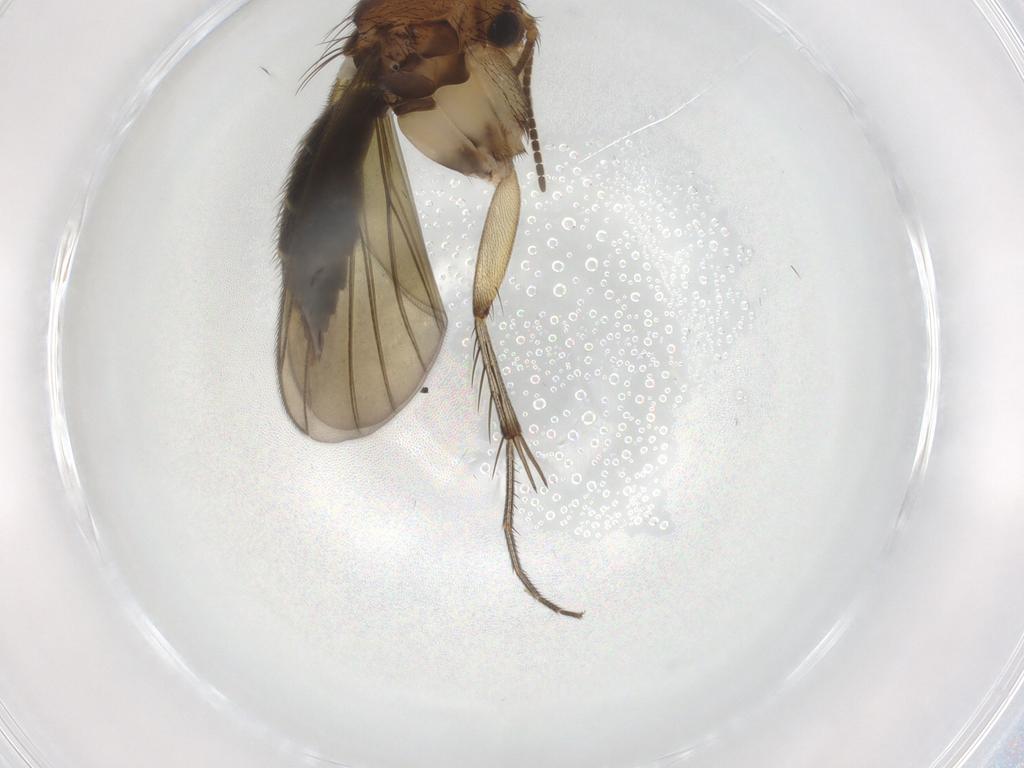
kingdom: Animalia
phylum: Arthropoda
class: Insecta
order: Diptera
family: Mycetophilidae
